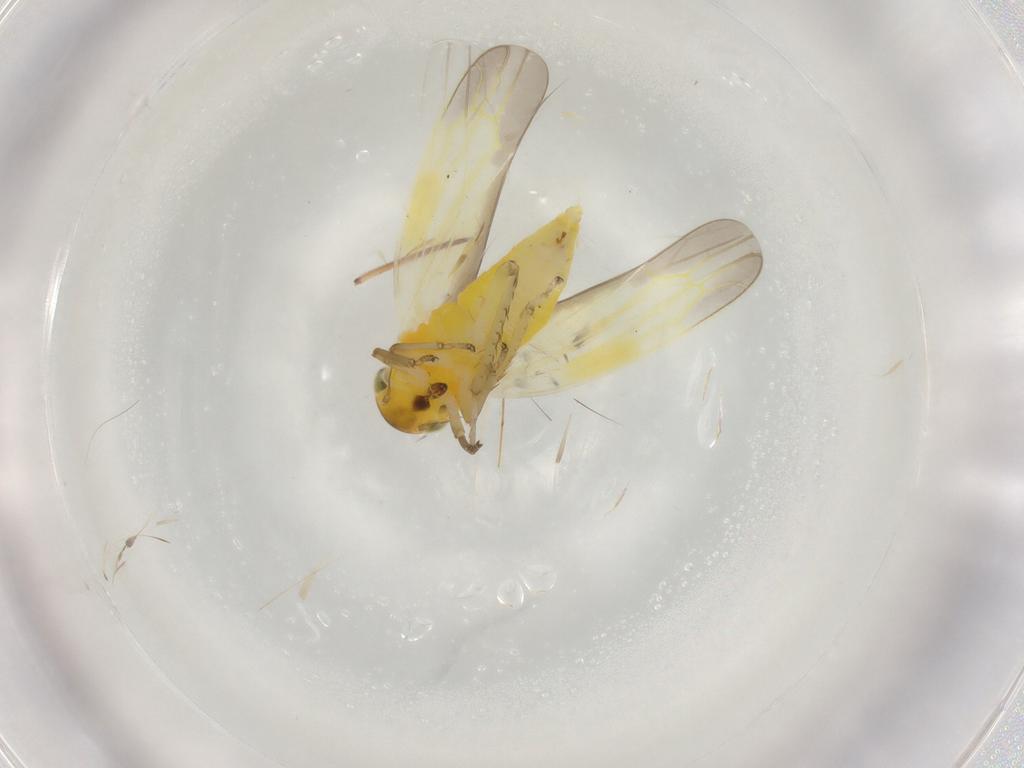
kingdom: Animalia
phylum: Arthropoda
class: Insecta
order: Hemiptera
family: Cicadellidae
